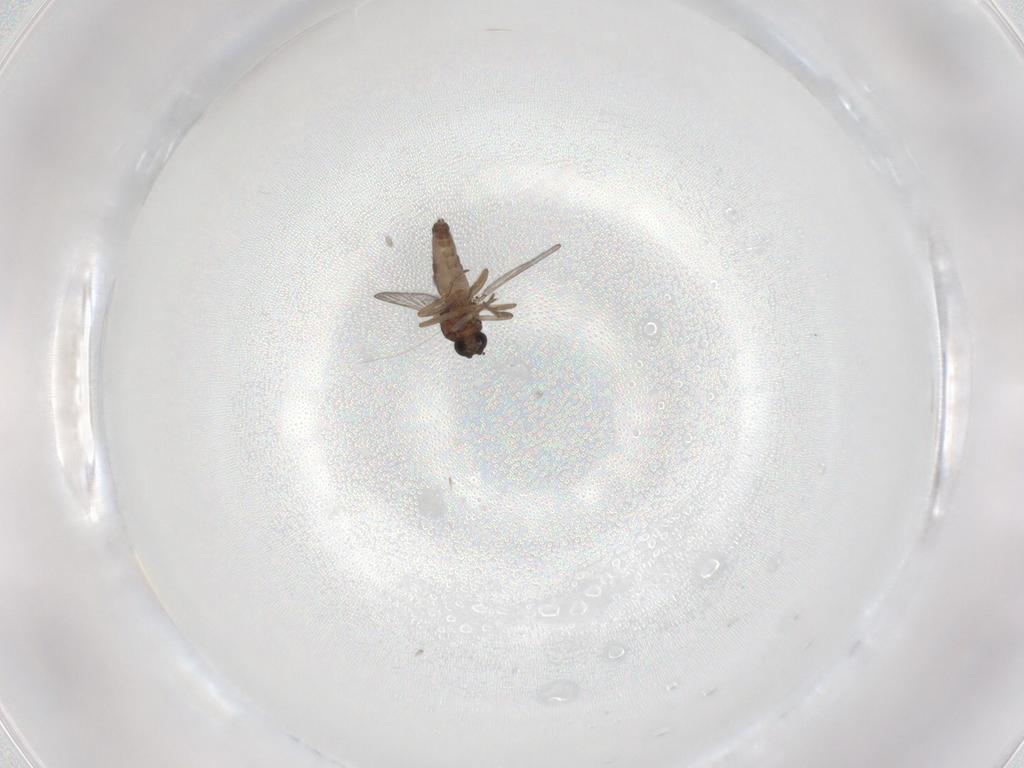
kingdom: Animalia
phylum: Arthropoda
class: Insecta
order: Diptera
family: Ceratopogonidae
